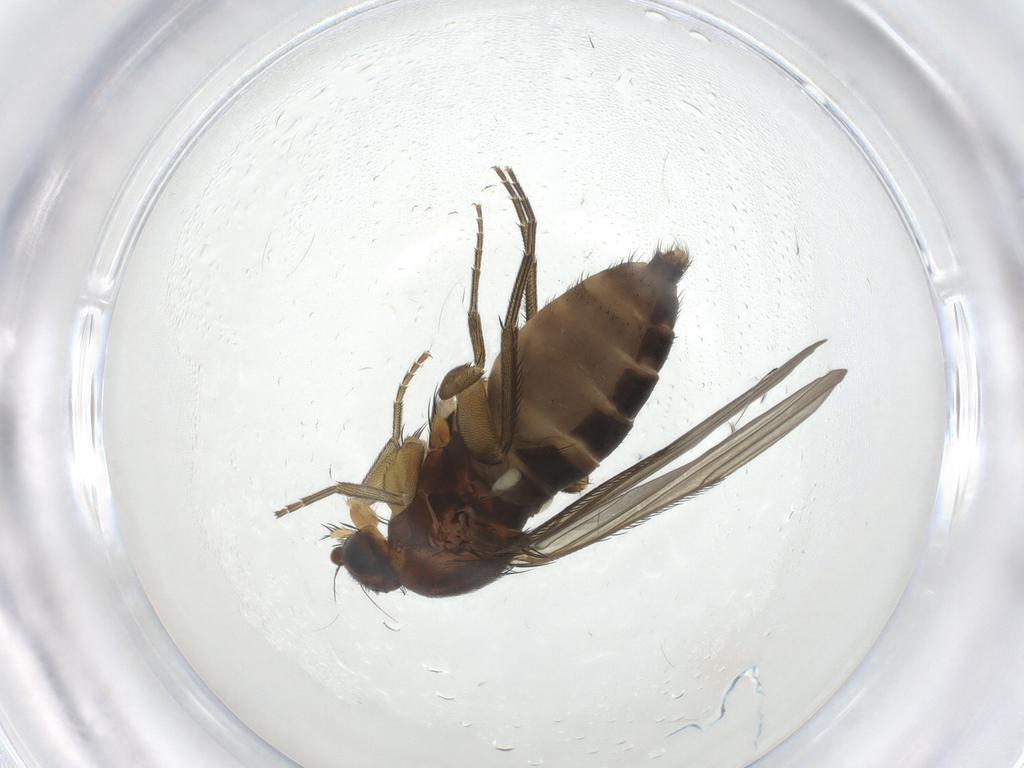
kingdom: Animalia
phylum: Arthropoda
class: Insecta
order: Diptera
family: Phoridae
